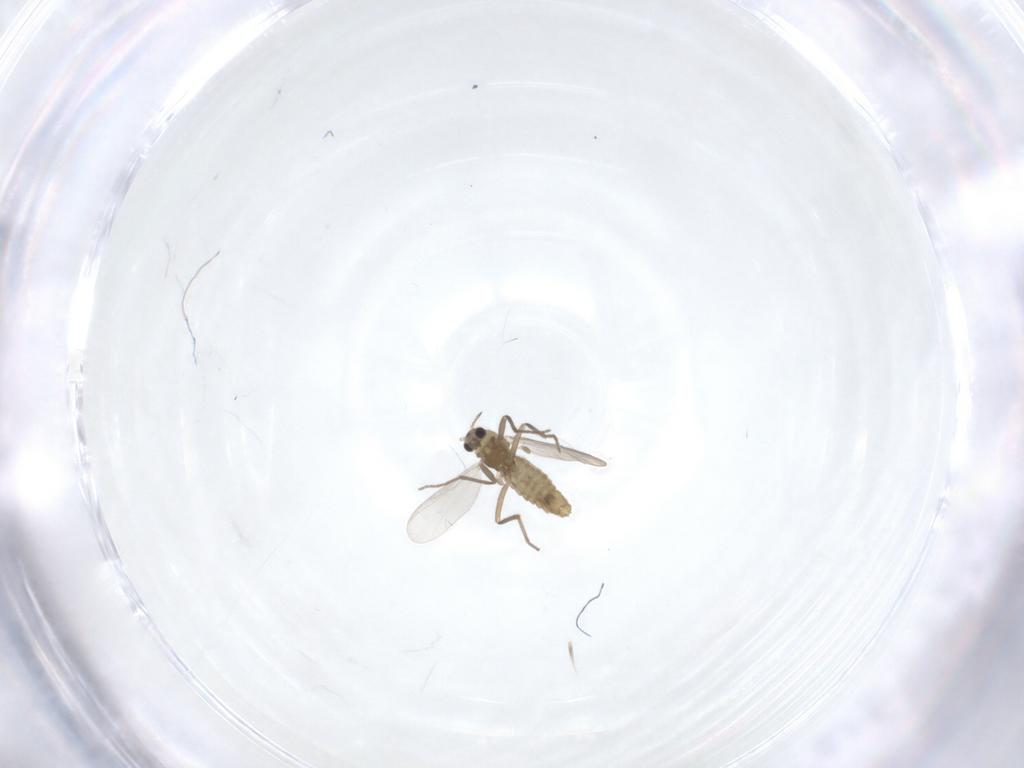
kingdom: Animalia
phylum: Arthropoda
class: Insecta
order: Diptera
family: Chironomidae
